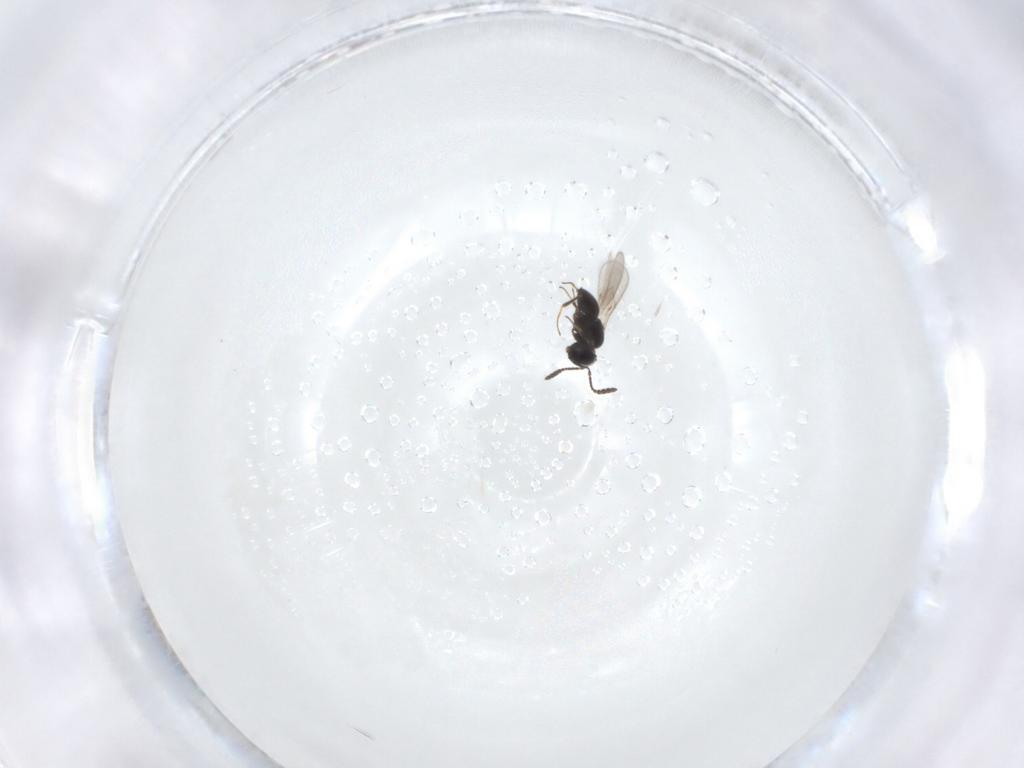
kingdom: Animalia
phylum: Arthropoda
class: Insecta
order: Hymenoptera
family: Scelionidae
